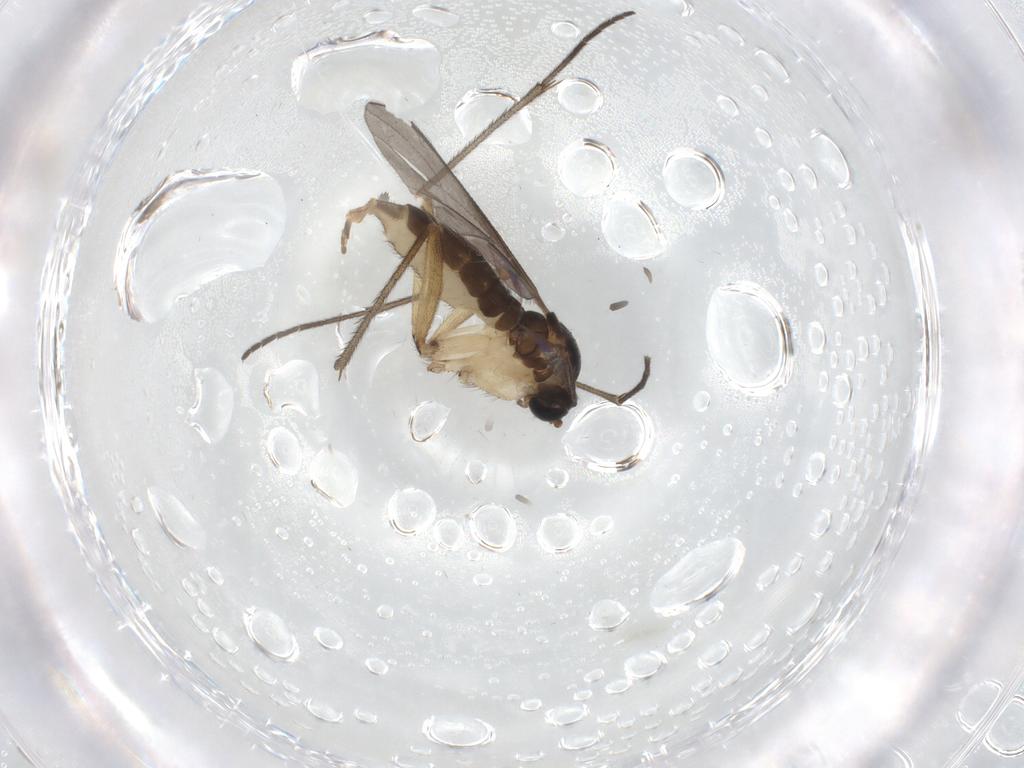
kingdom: Animalia
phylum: Arthropoda
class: Insecta
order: Diptera
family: Sciaridae
